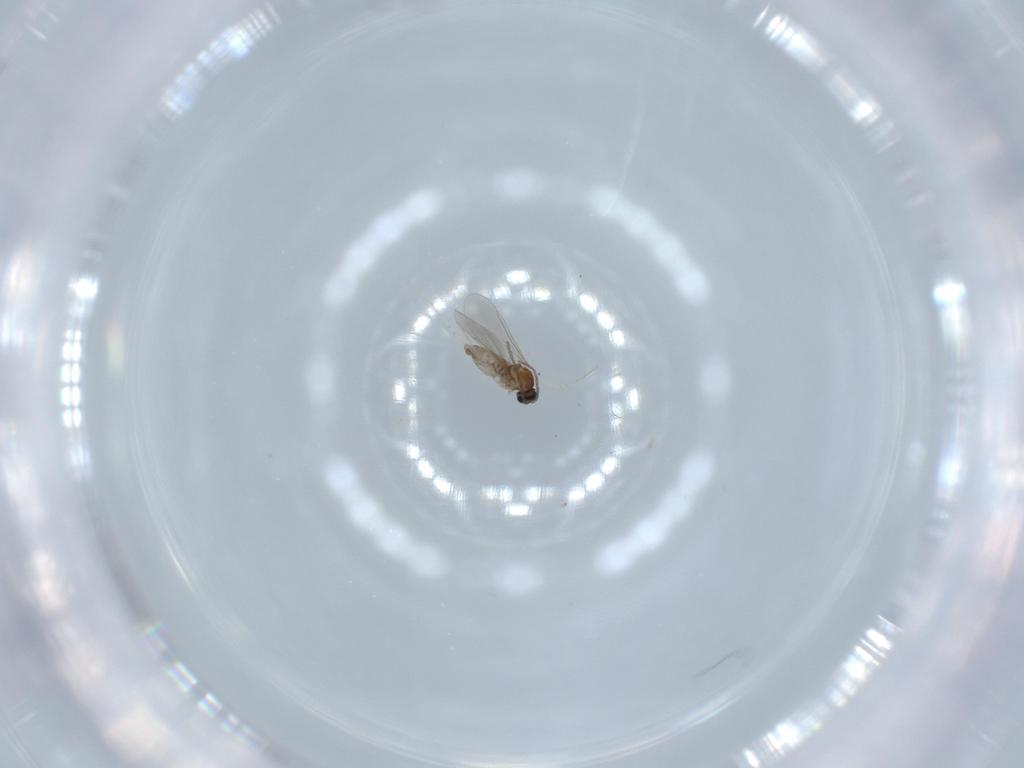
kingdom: Animalia
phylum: Arthropoda
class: Insecta
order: Diptera
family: Cecidomyiidae
